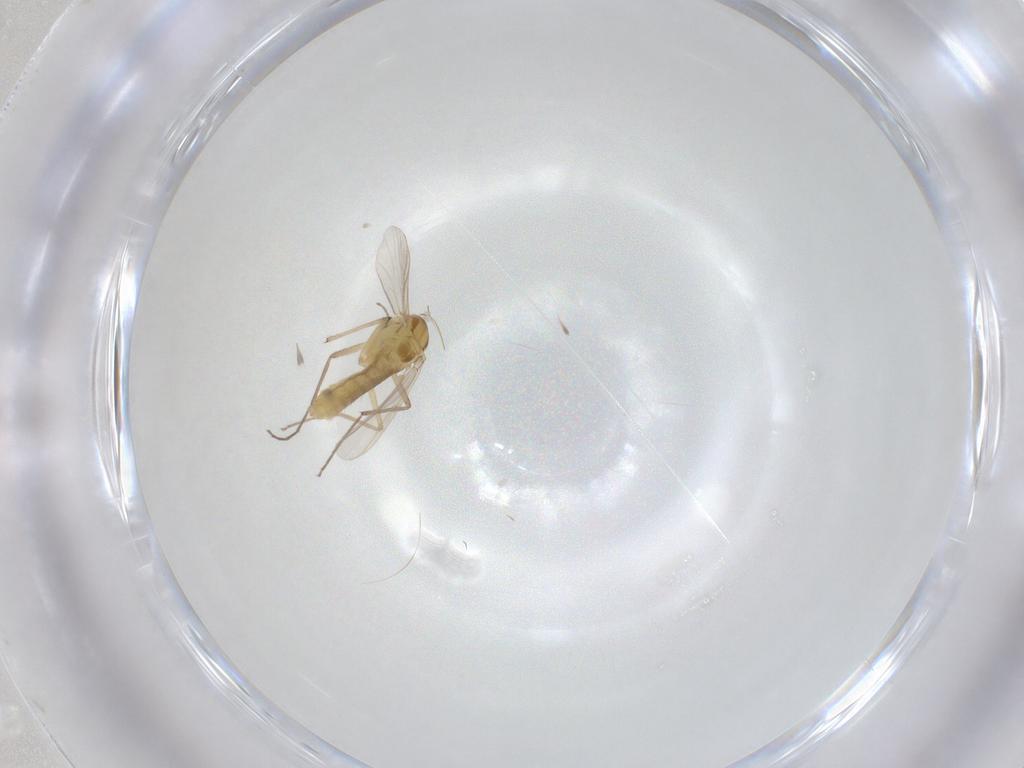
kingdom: Animalia
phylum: Arthropoda
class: Insecta
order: Diptera
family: Chironomidae
